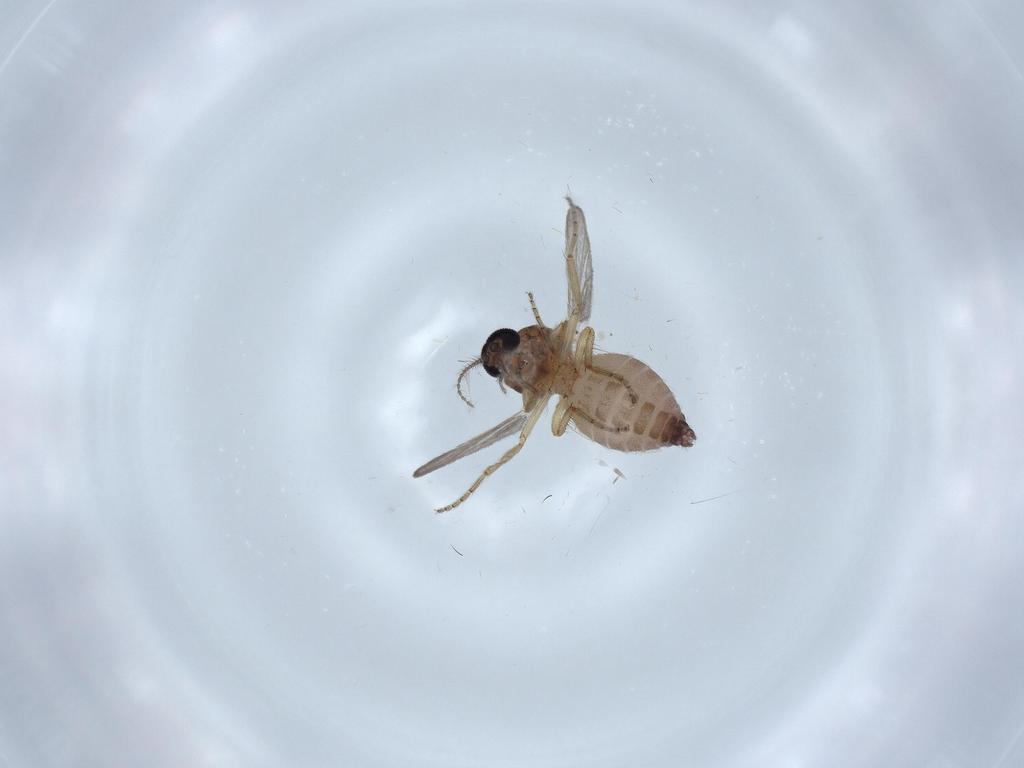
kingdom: Animalia
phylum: Arthropoda
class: Insecta
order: Diptera
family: Ceratopogonidae
